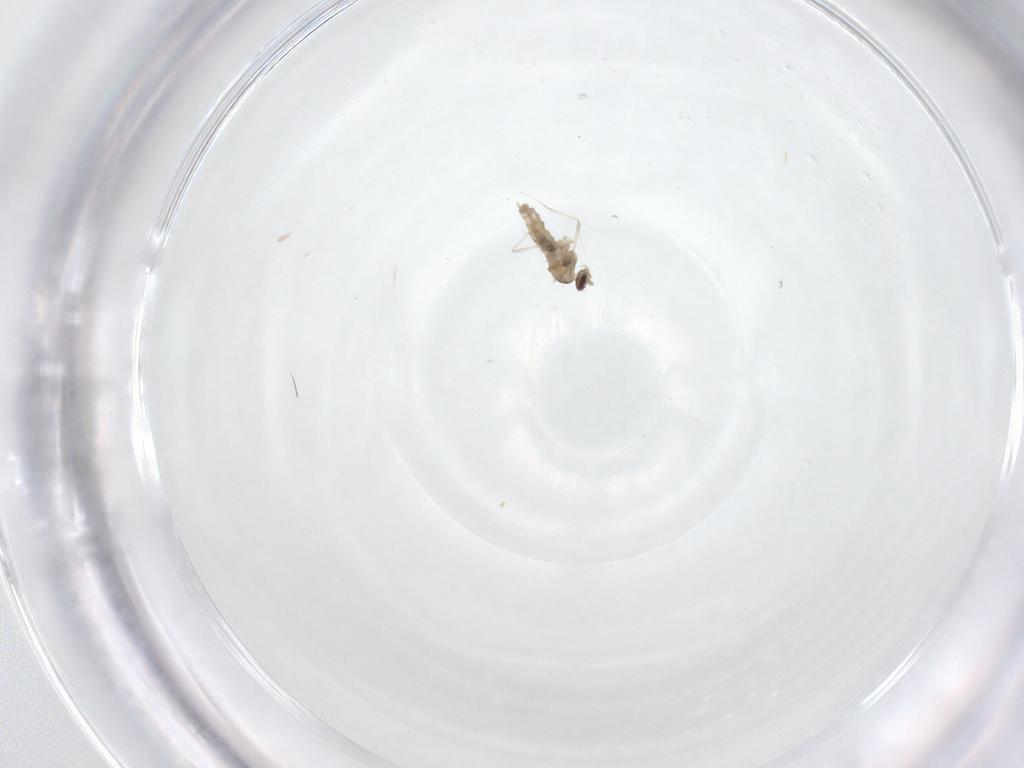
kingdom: Animalia
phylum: Arthropoda
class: Insecta
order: Diptera
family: Cecidomyiidae
